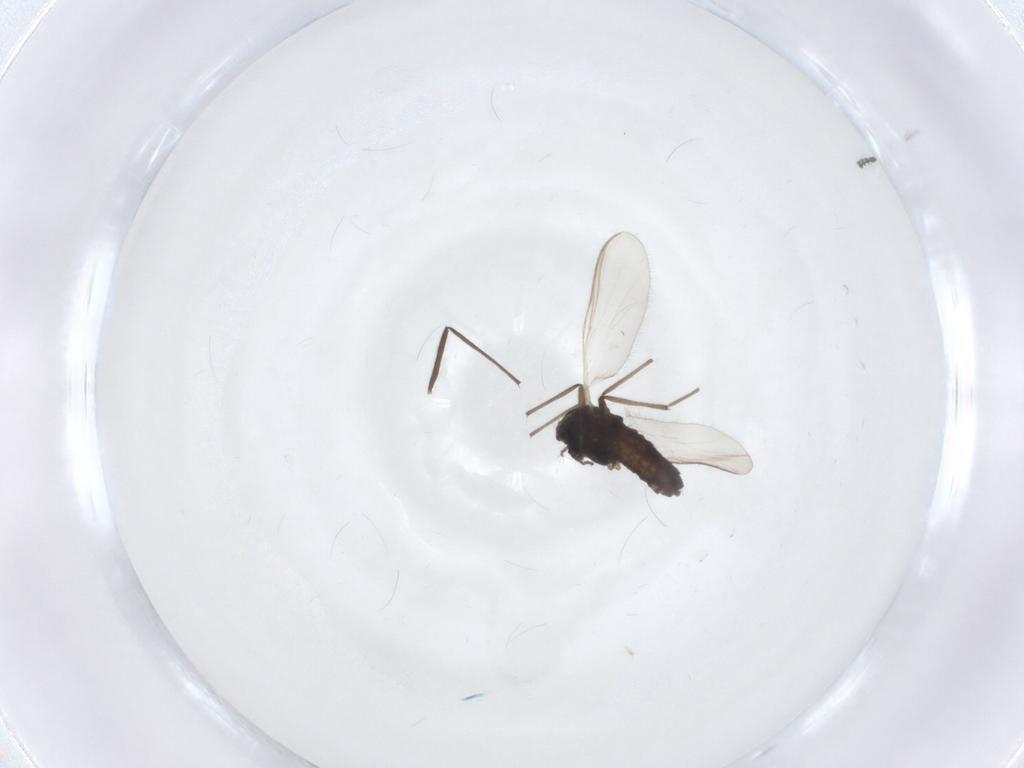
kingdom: Animalia
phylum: Arthropoda
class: Insecta
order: Diptera
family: Chironomidae
